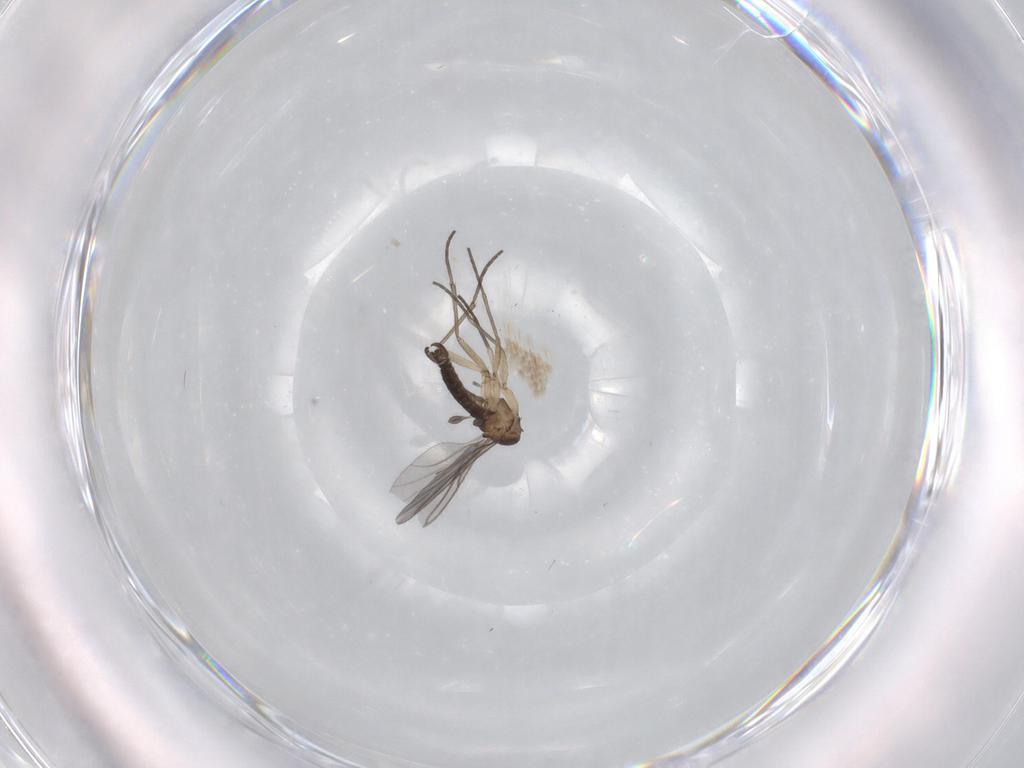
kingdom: Animalia
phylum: Arthropoda
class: Insecta
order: Diptera
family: Sciaridae
